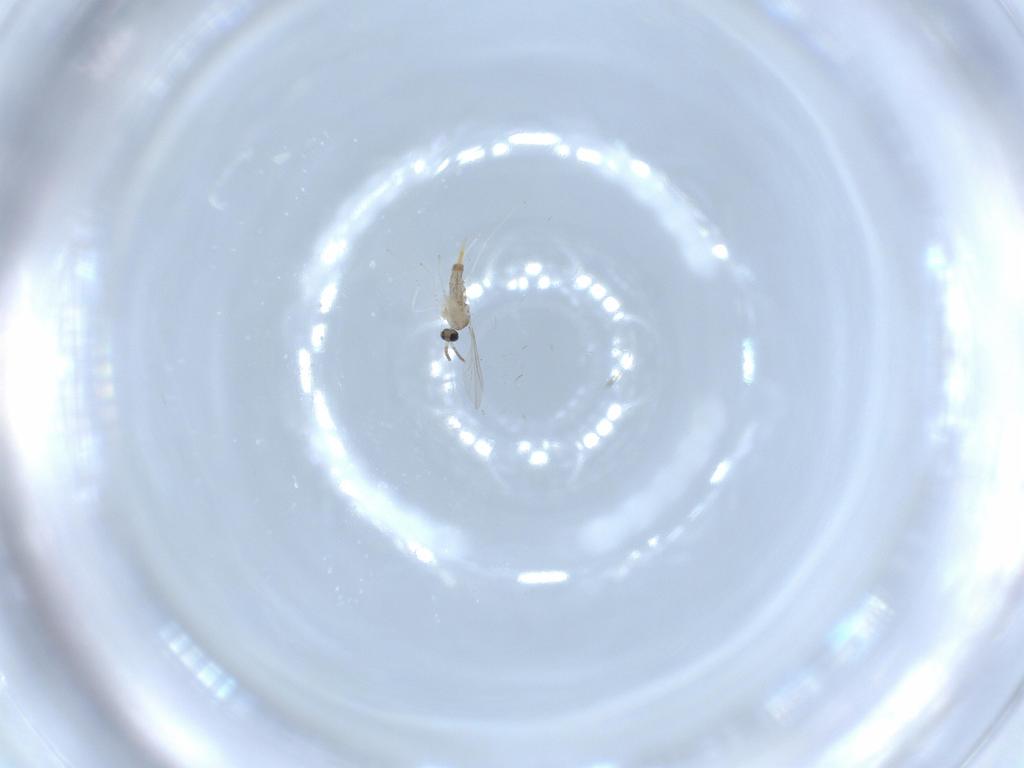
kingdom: Animalia
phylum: Arthropoda
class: Insecta
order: Diptera
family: Cecidomyiidae
